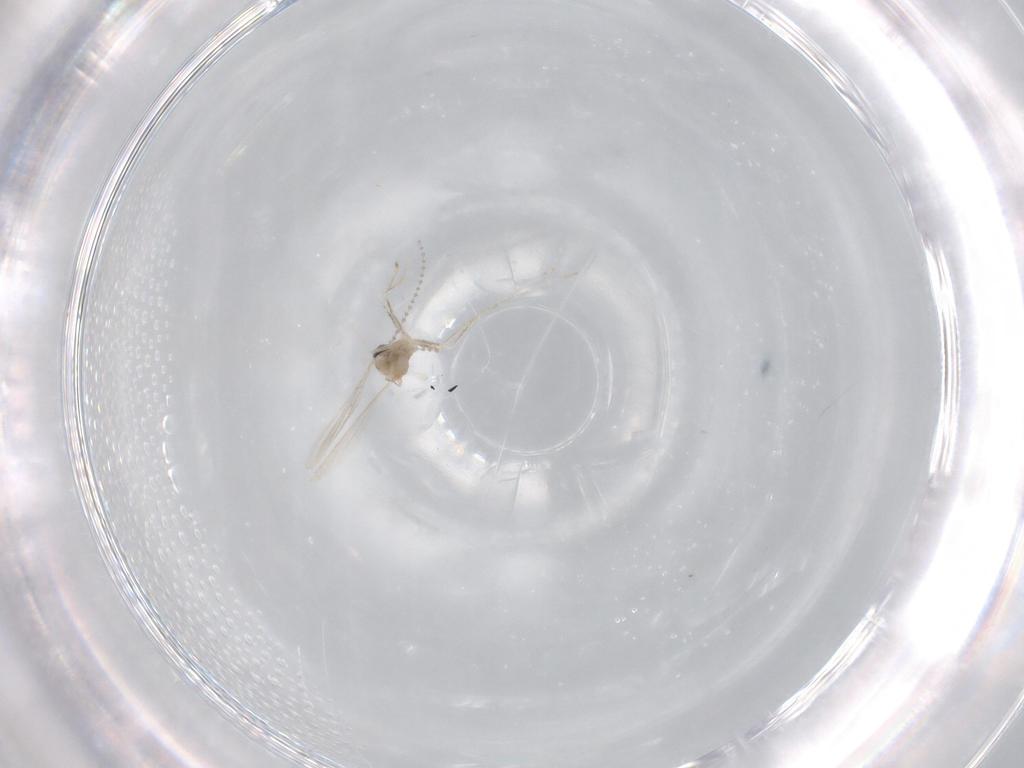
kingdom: Animalia
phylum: Arthropoda
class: Insecta
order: Diptera
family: Cecidomyiidae
